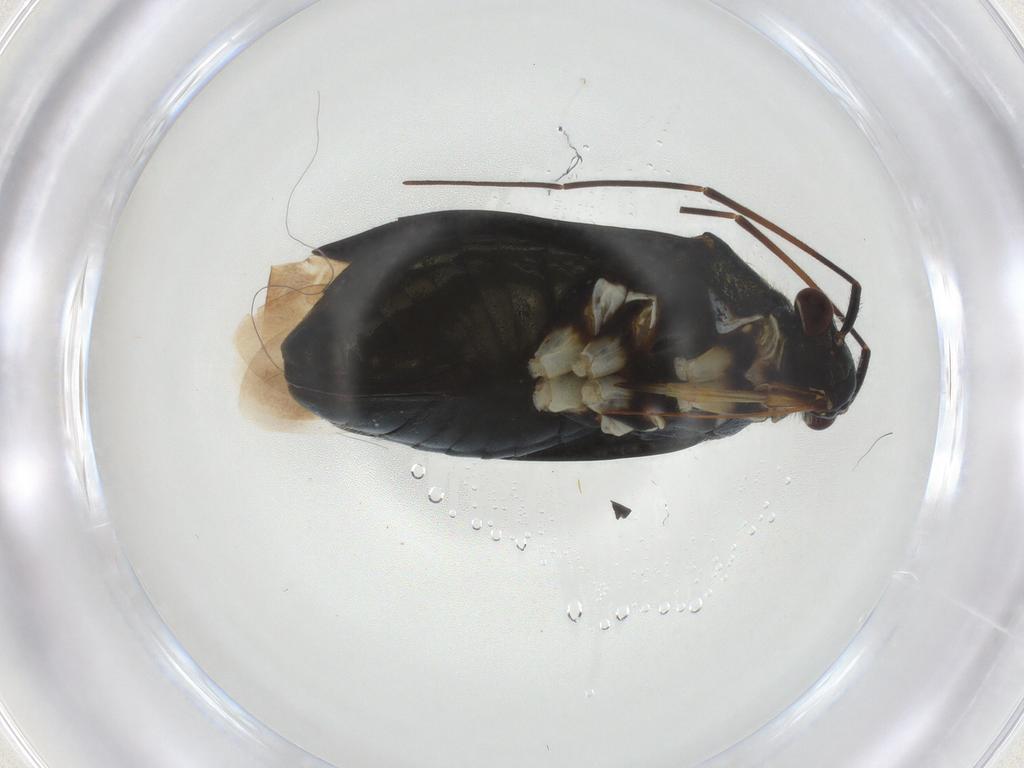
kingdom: Animalia
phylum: Arthropoda
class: Insecta
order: Hemiptera
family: Miridae
